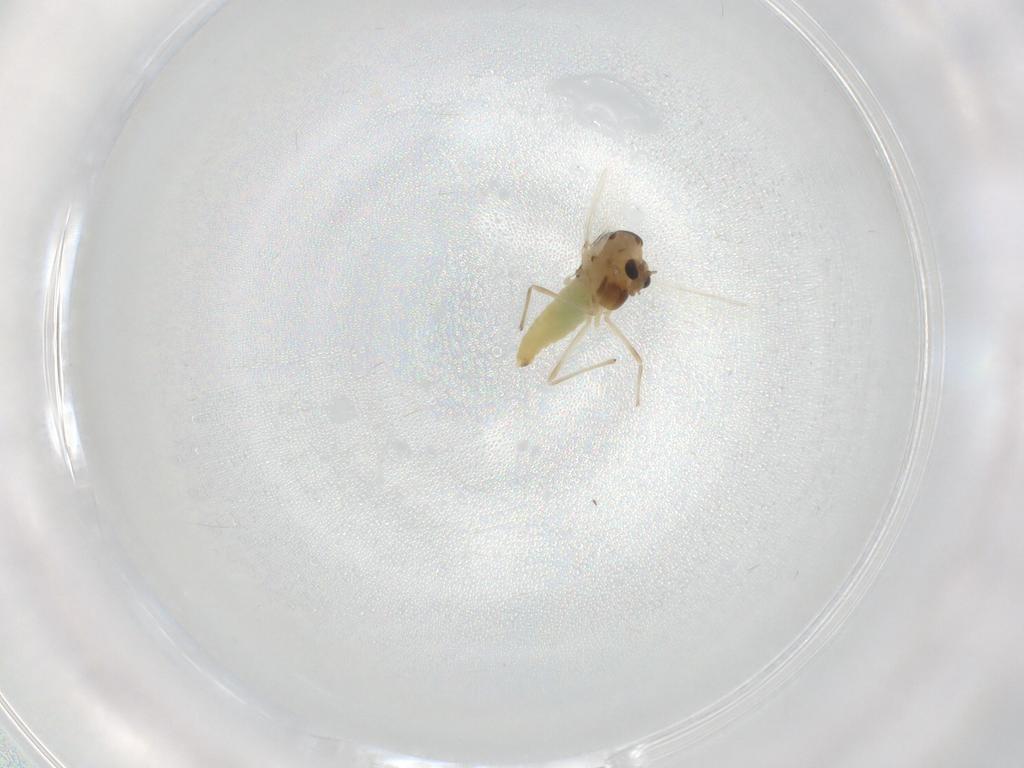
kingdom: Animalia
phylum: Arthropoda
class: Insecta
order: Diptera
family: Chironomidae
